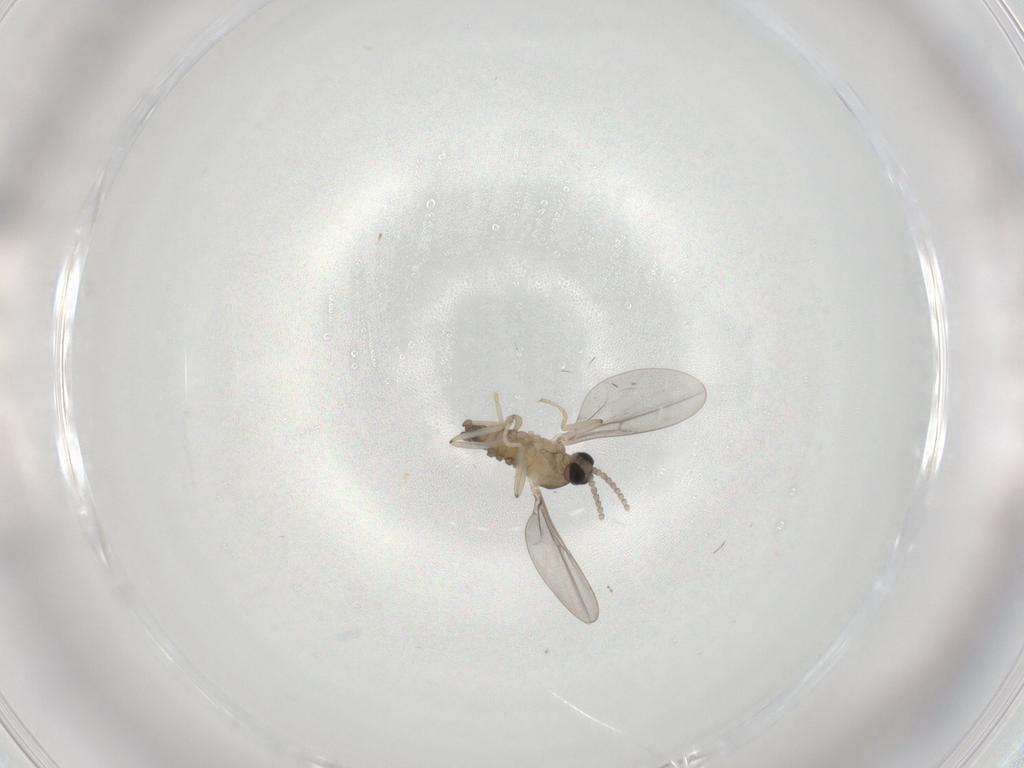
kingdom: Animalia
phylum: Arthropoda
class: Insecta
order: Diptera
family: Cecidomyiidae
